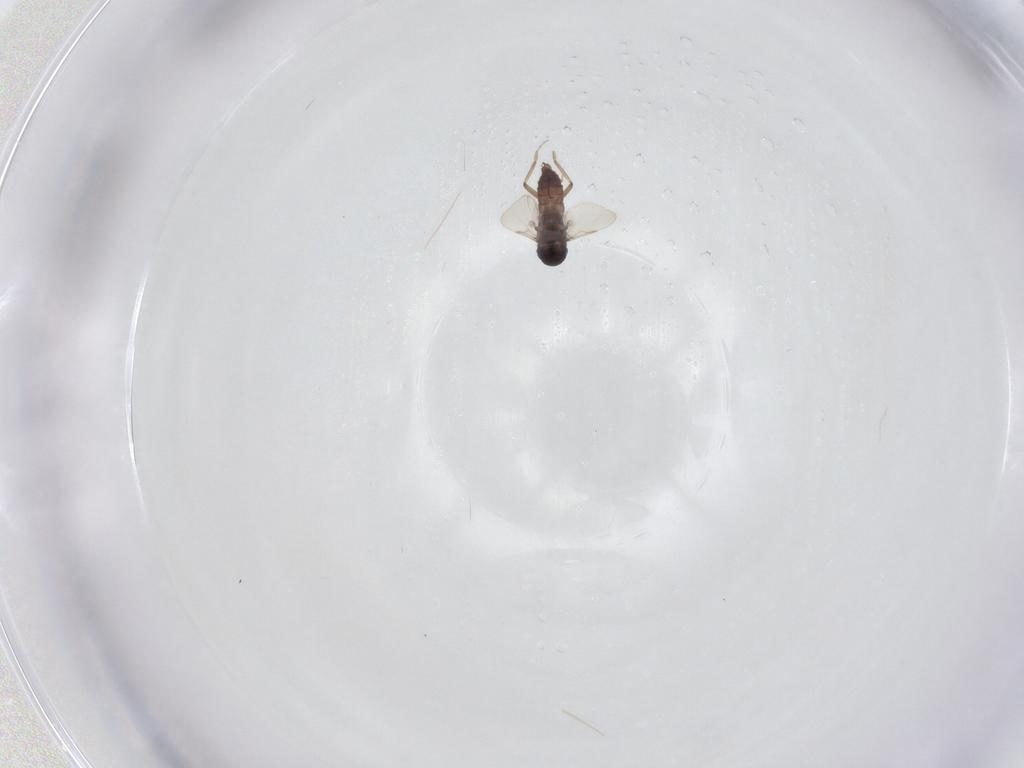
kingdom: Animalia
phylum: Arthropoda
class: Insecta
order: Diptera
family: Ceratopogonidae
